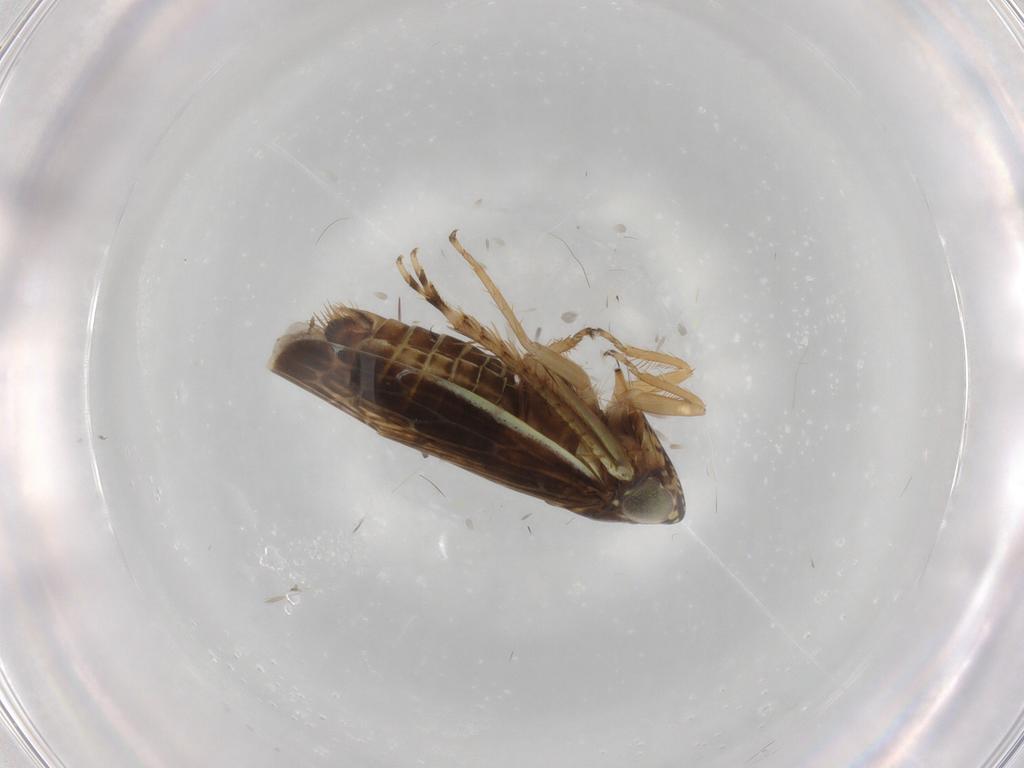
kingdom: Animalia
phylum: Arthropoda
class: Insecta
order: Hemiptera
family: Cicadellidae
